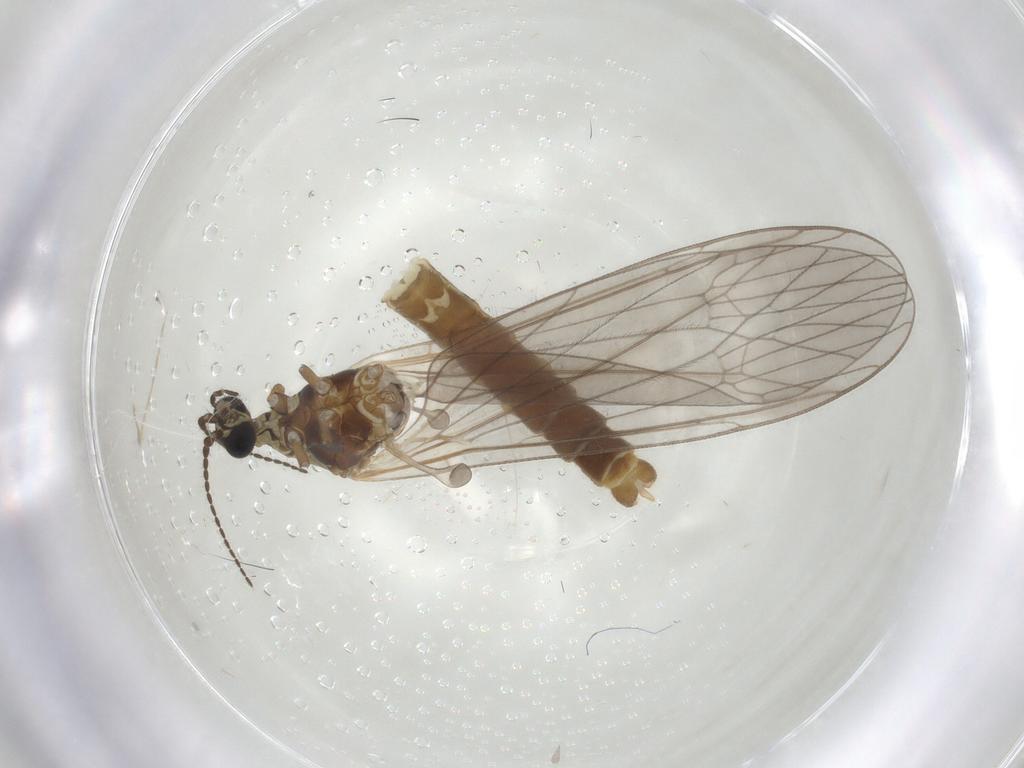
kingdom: Animalia
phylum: Arthropoda
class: Insecta
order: Diptera
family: Limoniidae
